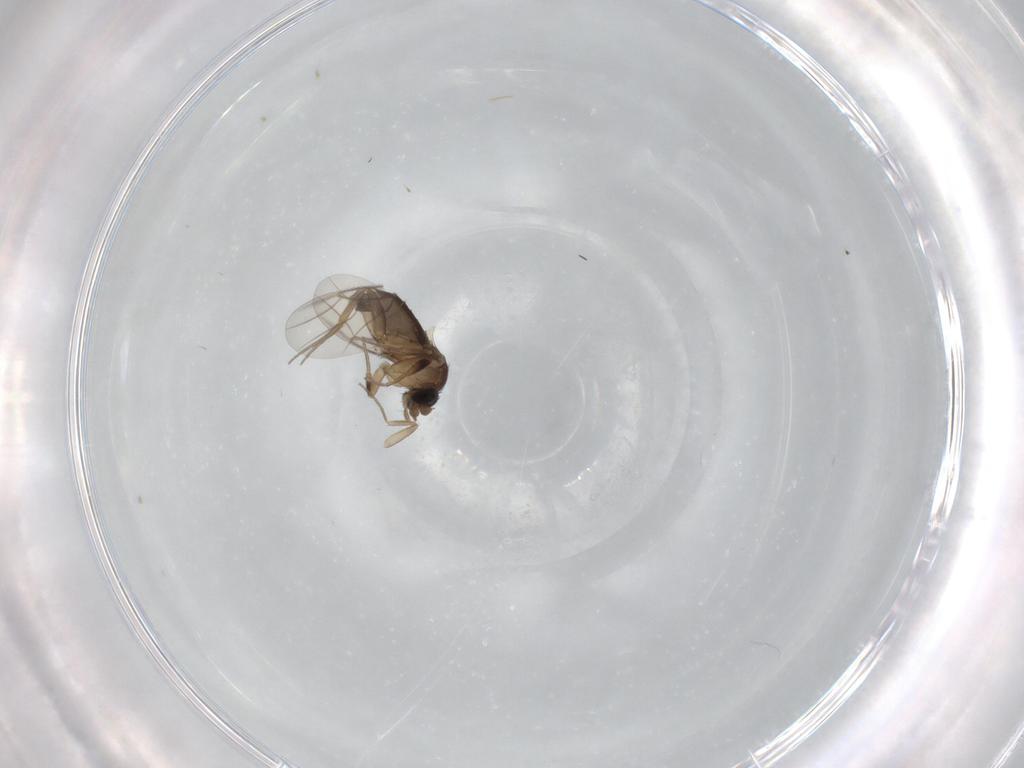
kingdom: Animalia
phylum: Arthropoda
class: Insecta
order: Diptera
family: Phoridae
